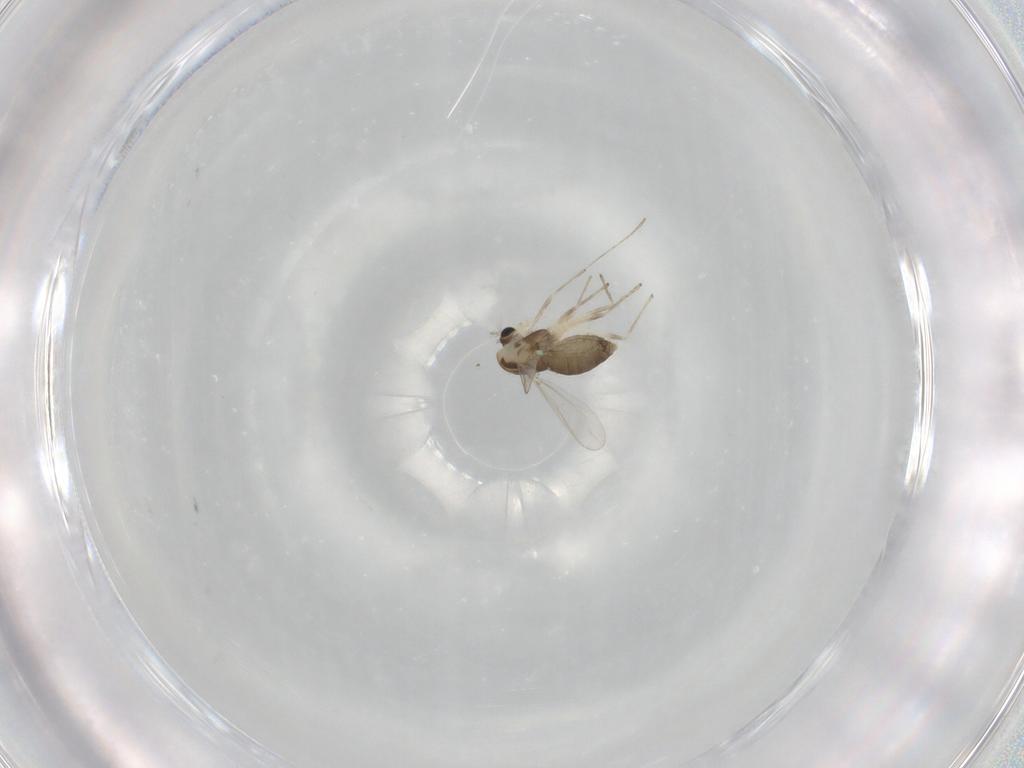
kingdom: Animalia
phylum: Arthropoda
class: Insecta
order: Diptera
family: Chironomidae
